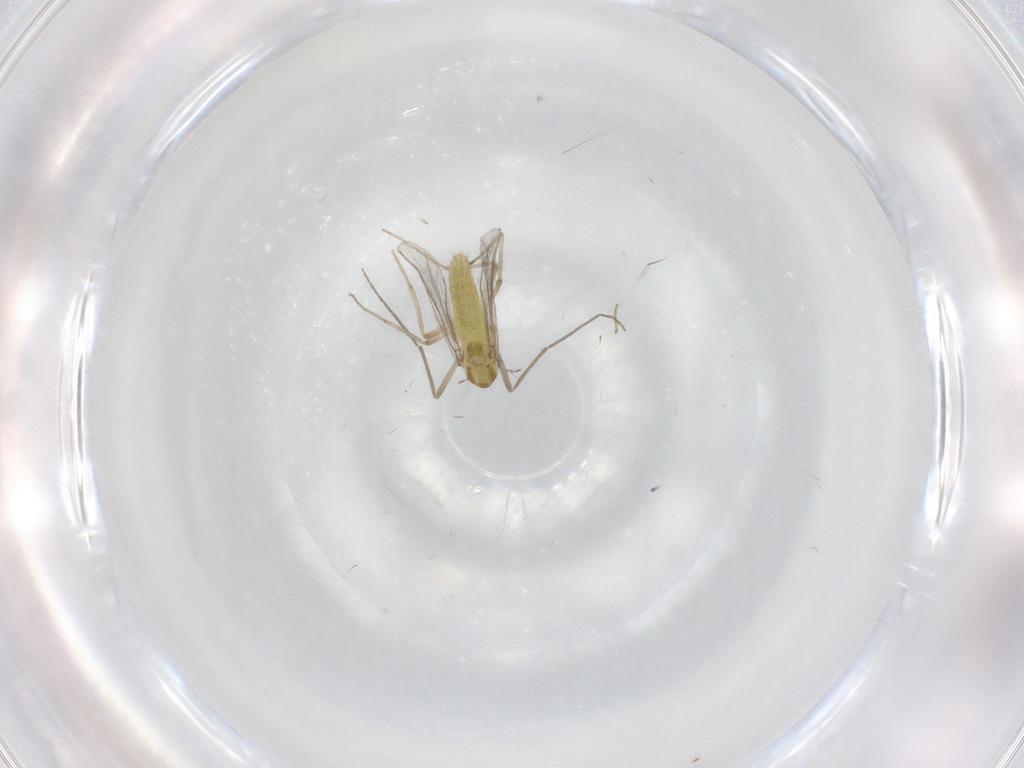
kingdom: Animalia
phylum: Arthropoda
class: Insecta
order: Diptera
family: Chironomidae
